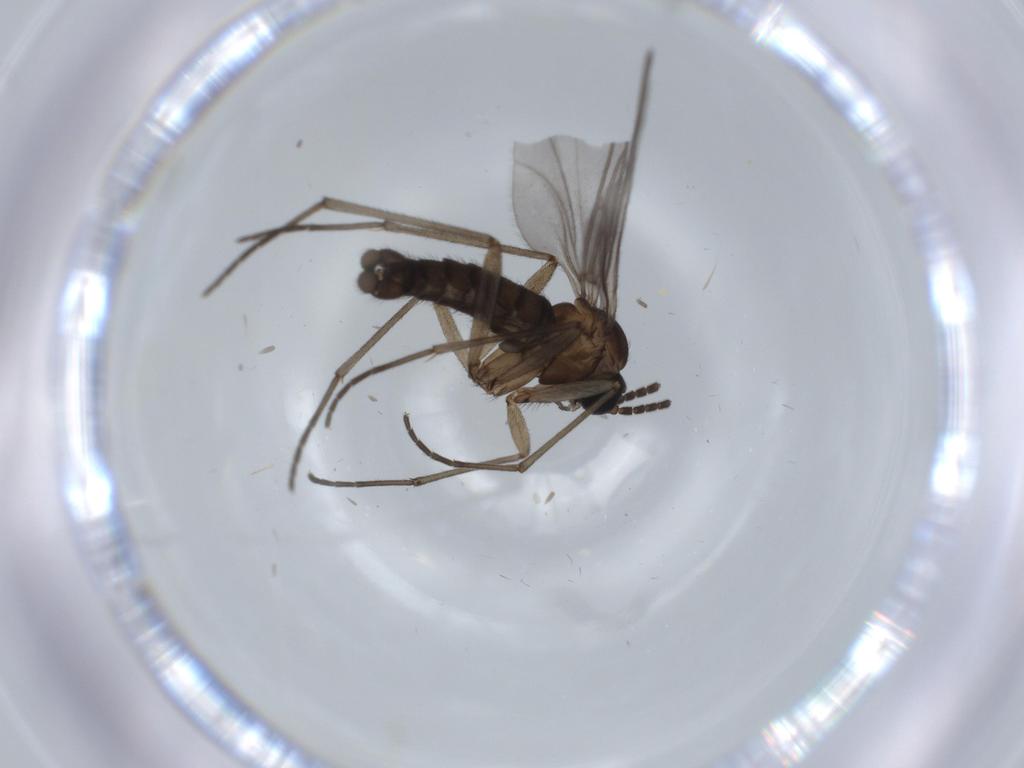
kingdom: Animalia
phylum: Arthropoda
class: Insecta
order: Diptera
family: Sciaridae
